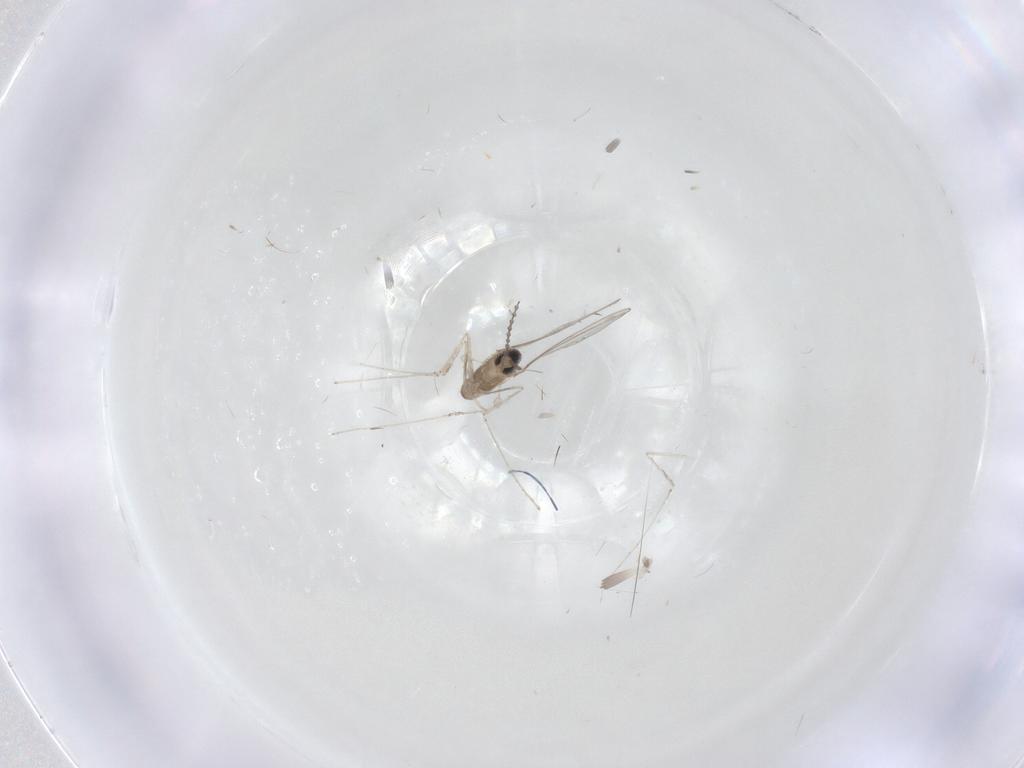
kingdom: Animalia
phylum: Arthropoda
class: Insecta
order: Diptera
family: Cecidomyiidae
